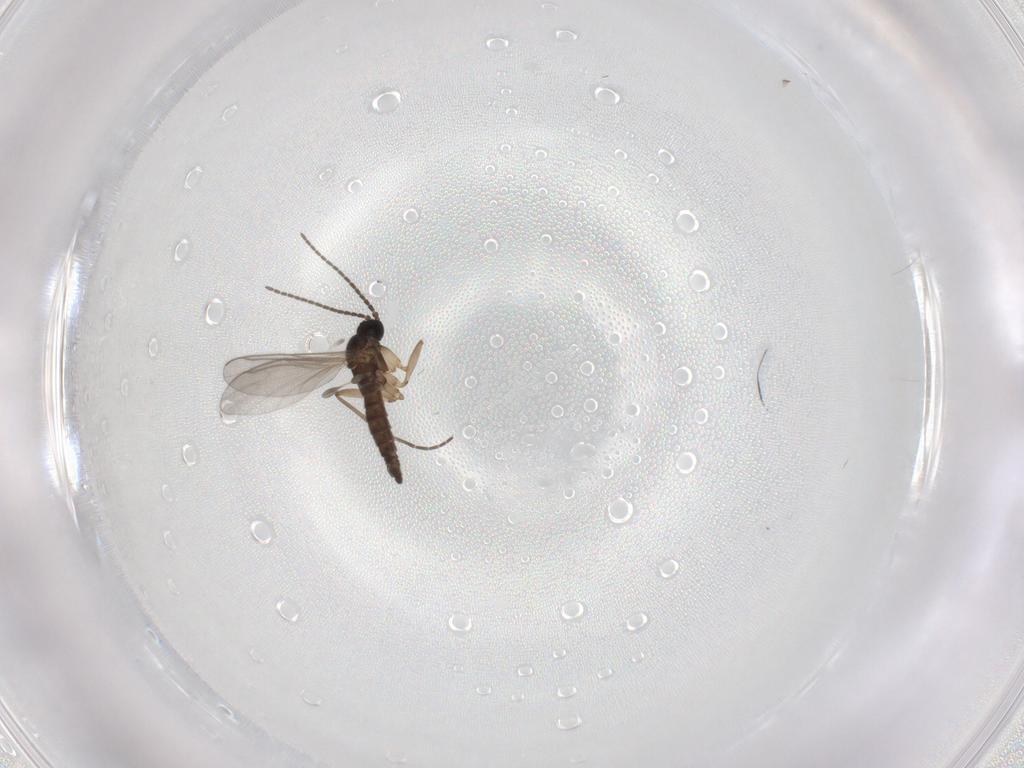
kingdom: Animalia
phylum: Arthropoda
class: Insecta
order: Diptera
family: Sciaridae
